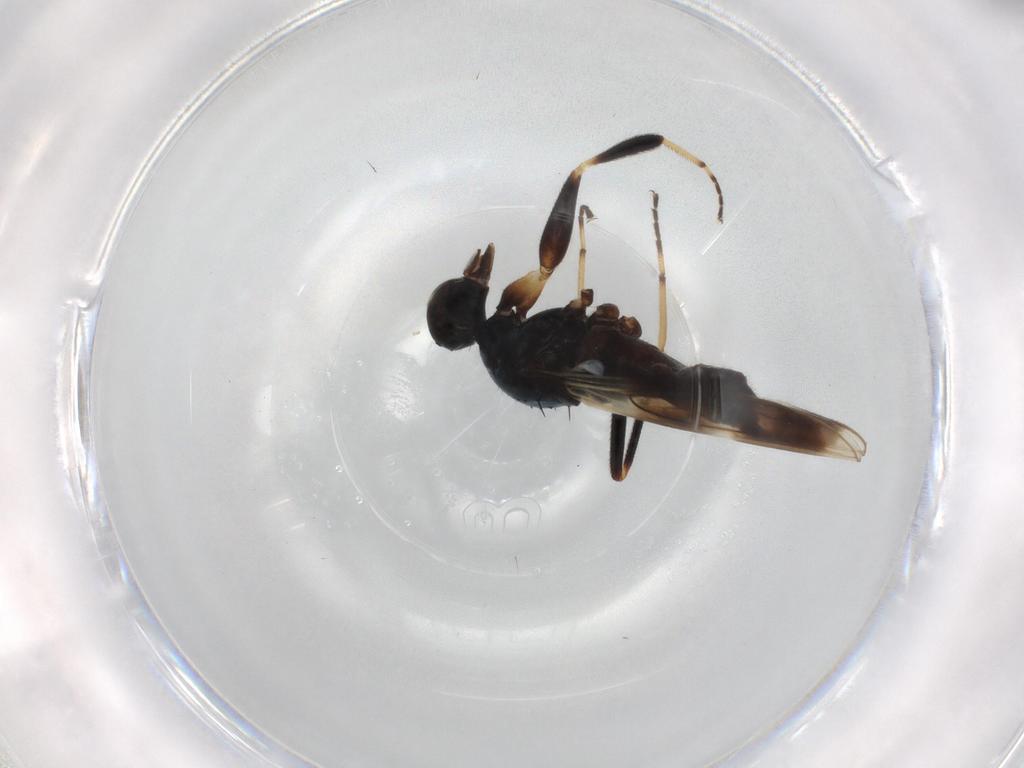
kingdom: Animalia
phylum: Arthropoda
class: Insecta
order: Diptera
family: Hybotidae
